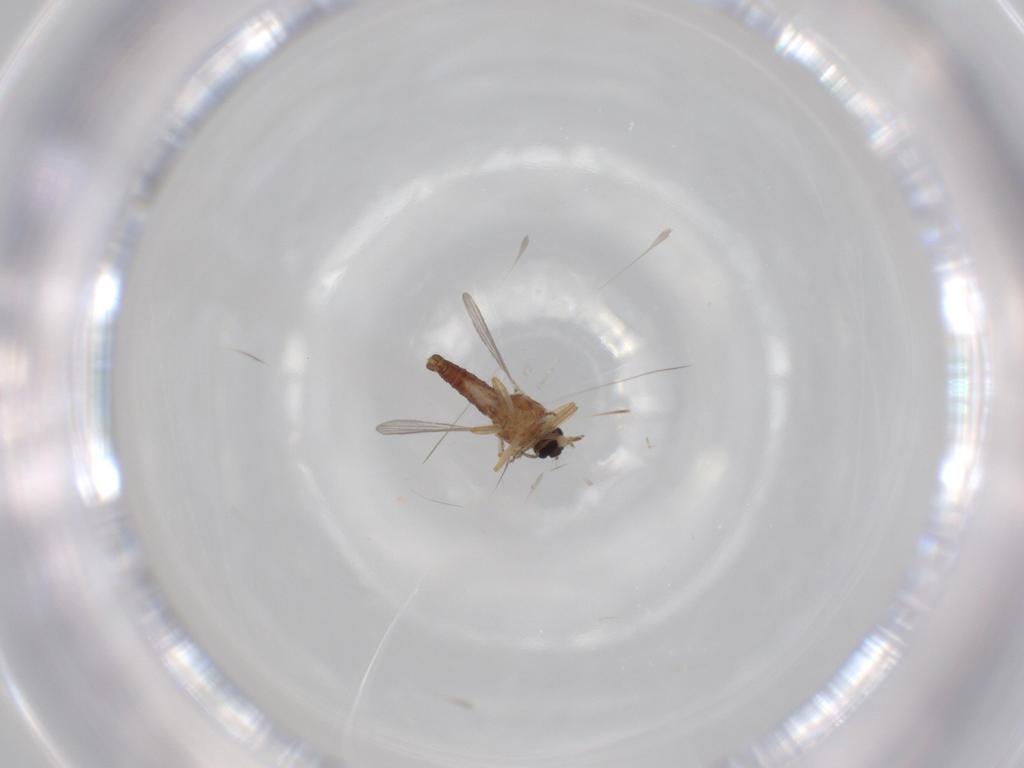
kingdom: Animalia
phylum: Arthropoda
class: Insecta
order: Diptera
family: Ceratopogonidae
